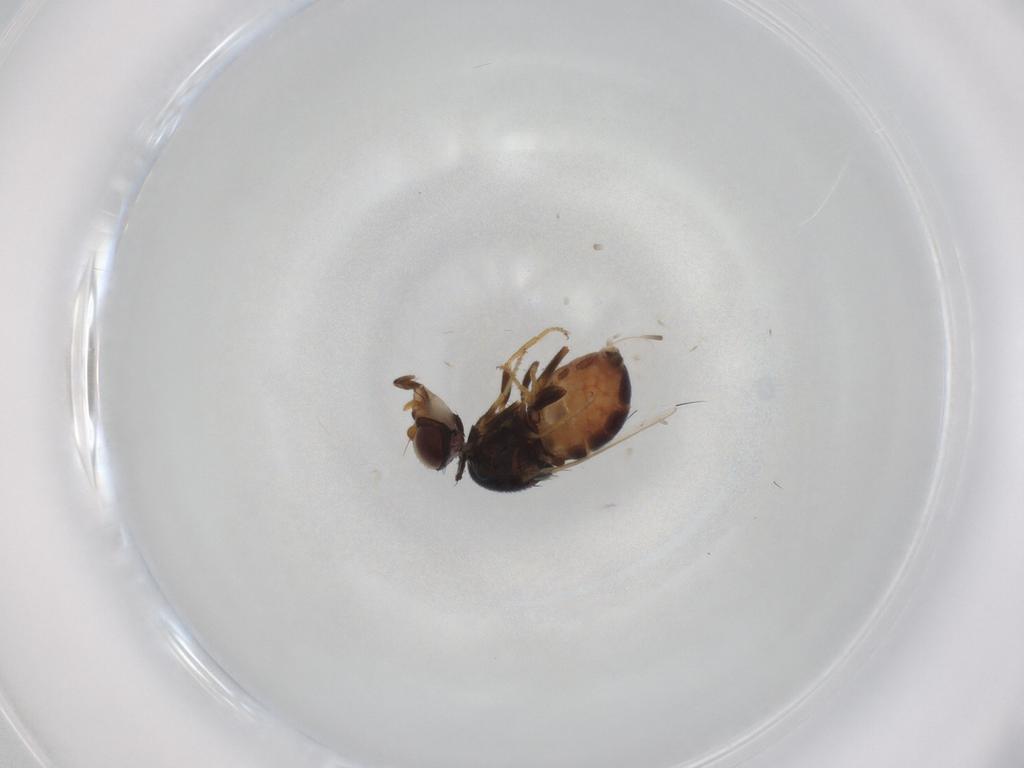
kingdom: Animalia
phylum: Arthropoda
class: Insecta
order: Diptera
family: Chloropidae
